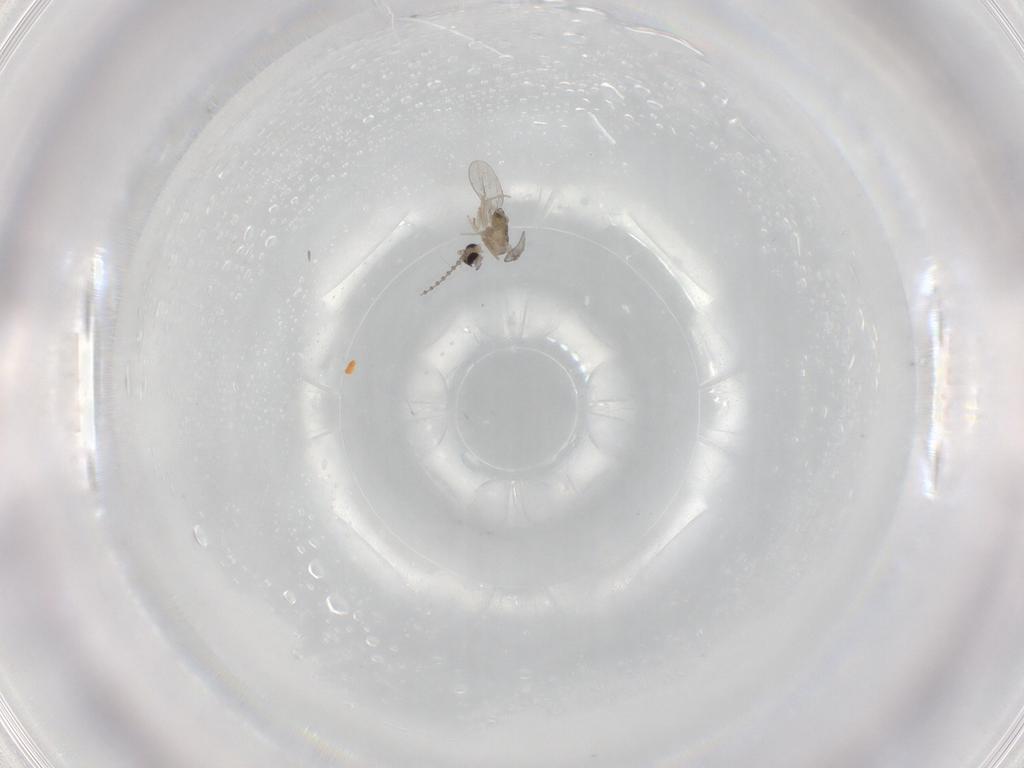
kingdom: Animalia
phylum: Arthropoda
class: Insecta
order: Diptera
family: Cecidomyiidae
